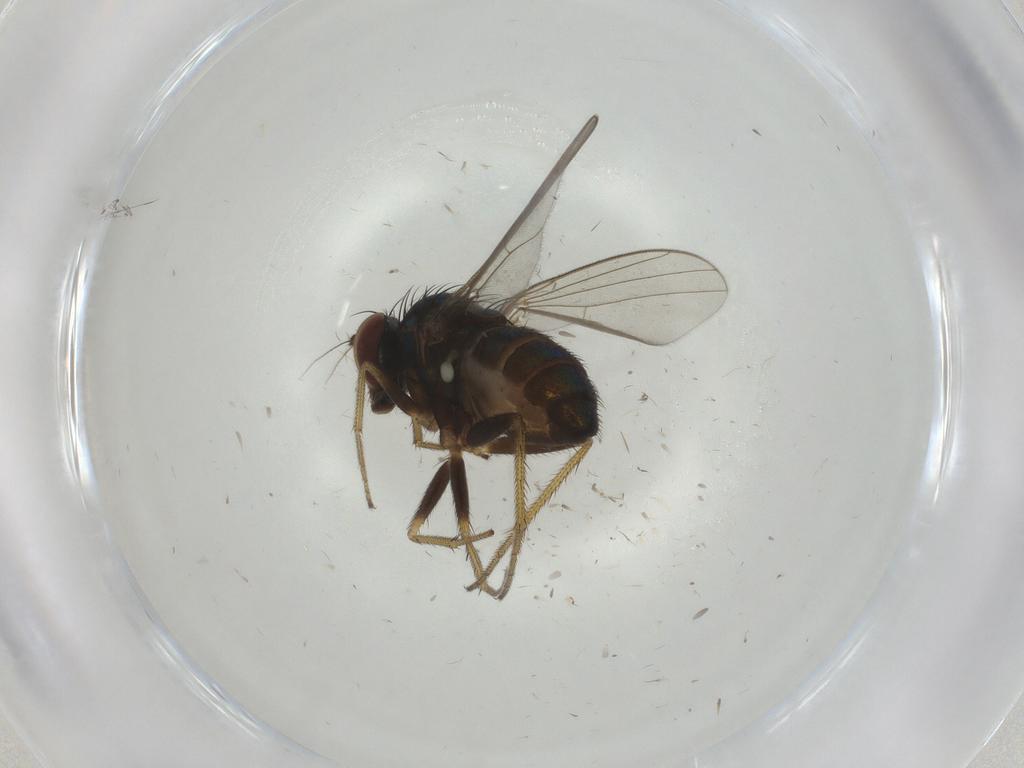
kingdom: Animalia
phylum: Arthropoda
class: Insecta
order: Diptera
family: Dolichopodidae
